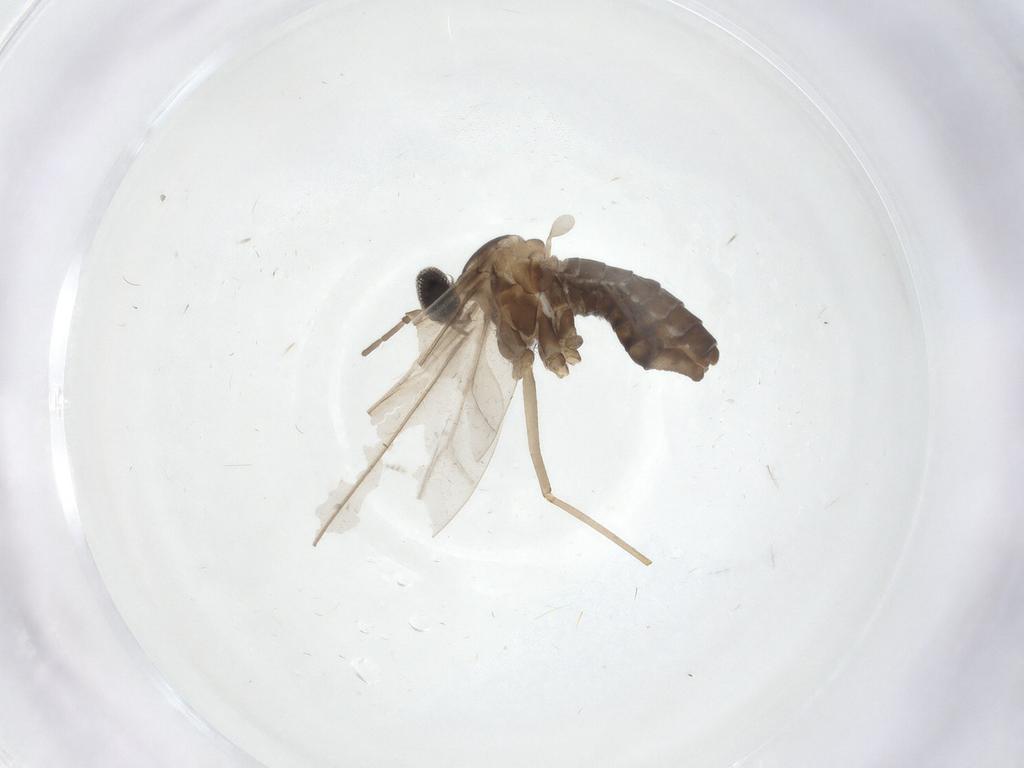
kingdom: Animalia
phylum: Arthropoda
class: Insecta
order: Diptera
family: Cecidomyiidae
